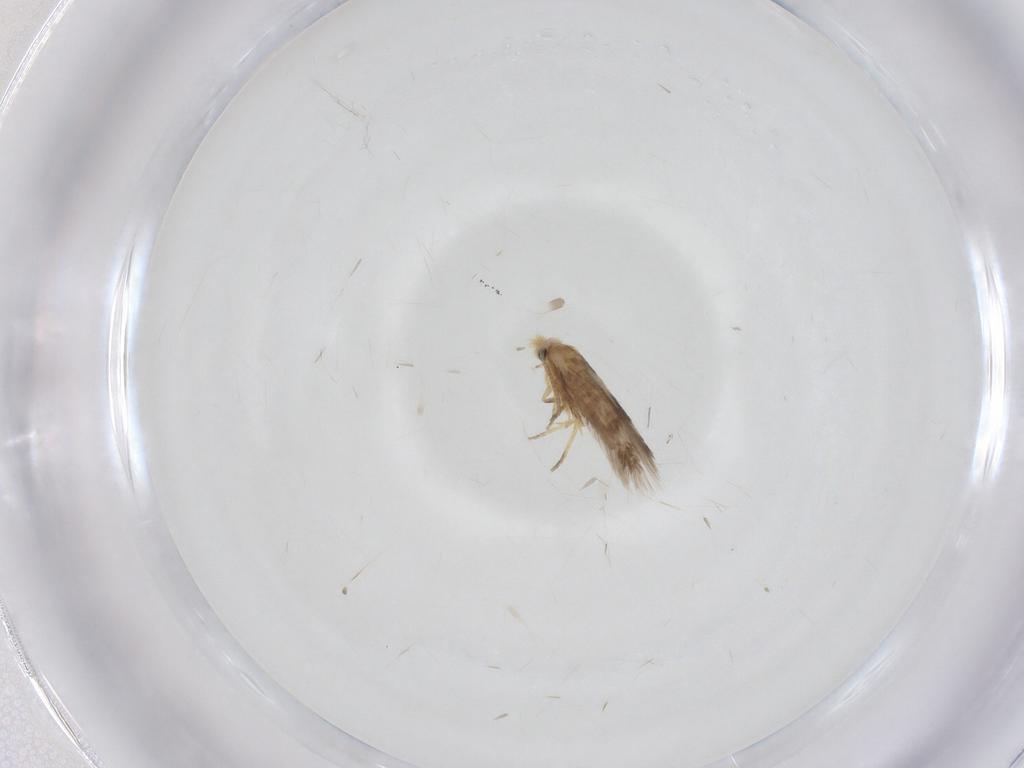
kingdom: Animalia
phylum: Arthropoda
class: Insecta
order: Lepidoptera
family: Nepticulidae
